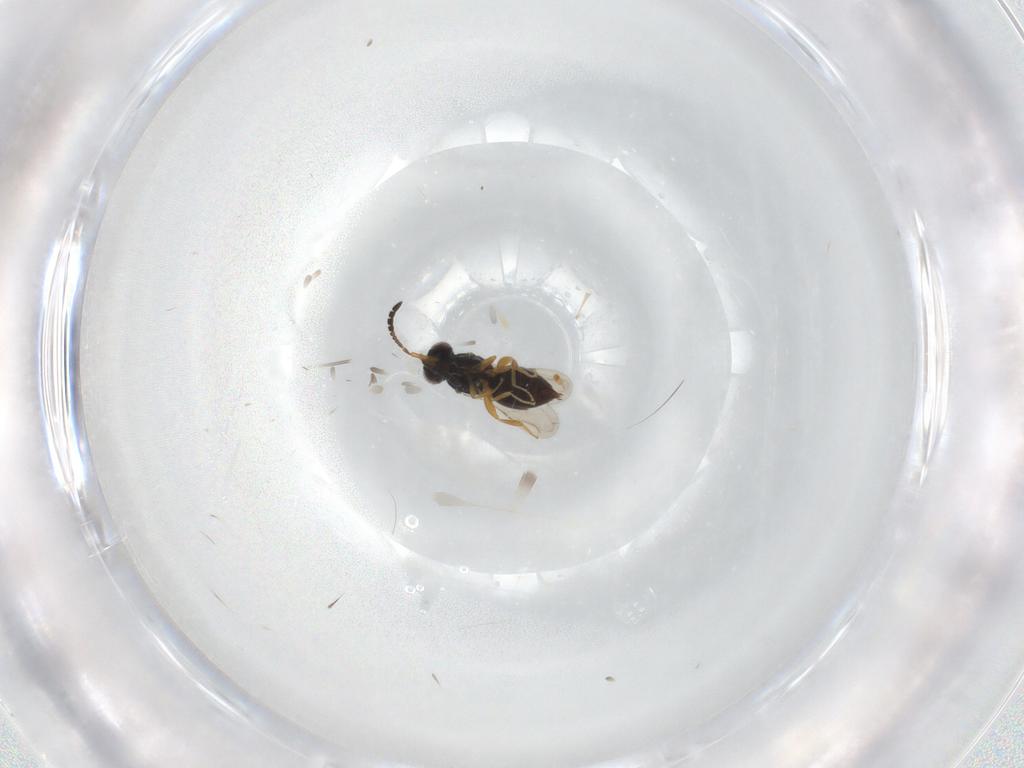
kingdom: Animalia
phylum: Arthropoda
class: Insecta
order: Hymenoptera
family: Ceraphronidae
